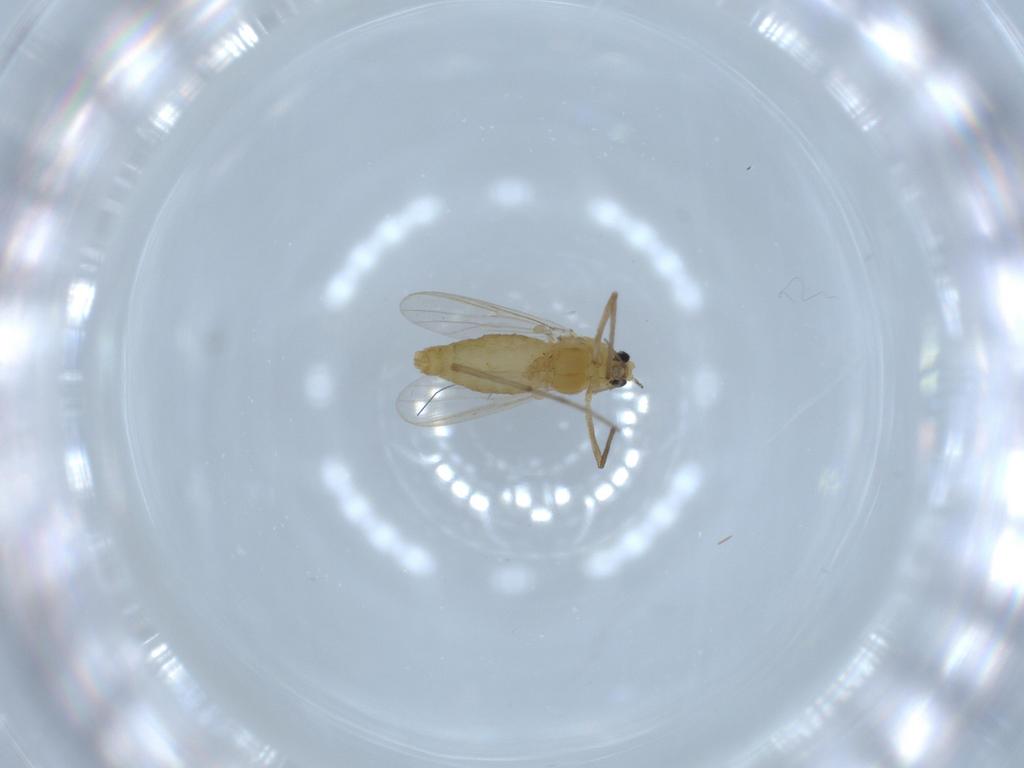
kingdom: Animalia
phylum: Arthropoda
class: Insecta
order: Diptera
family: Chironomidae
